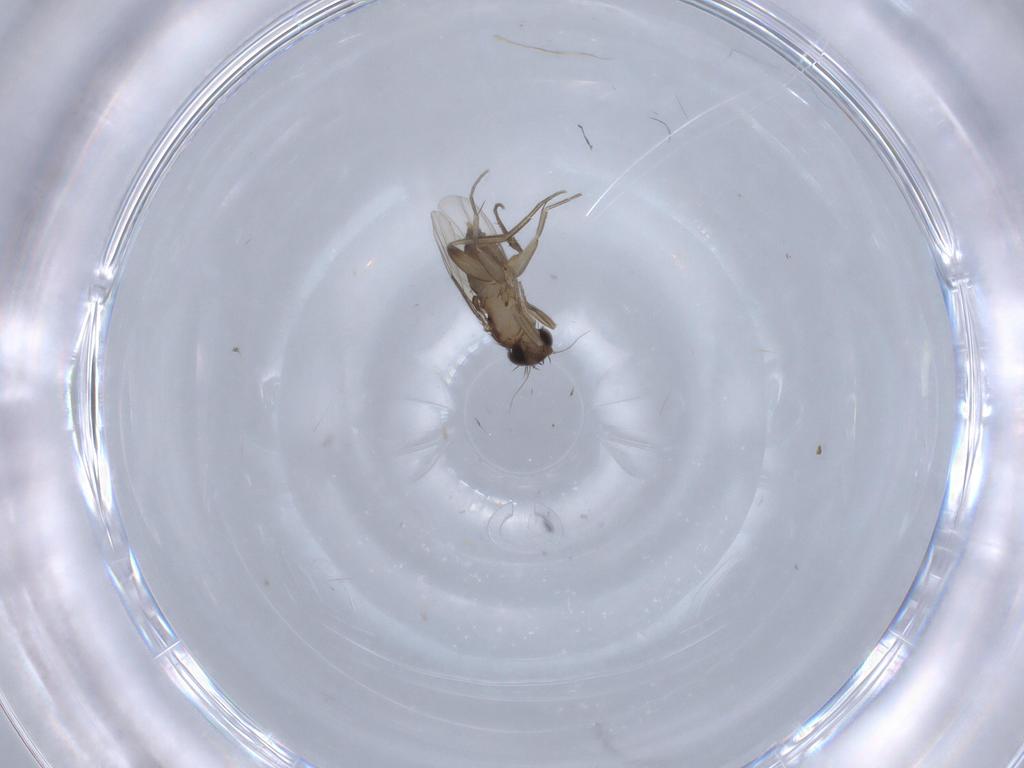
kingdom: Animalia
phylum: Arthropoda
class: Insecta
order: Diptera
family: Phoridae
